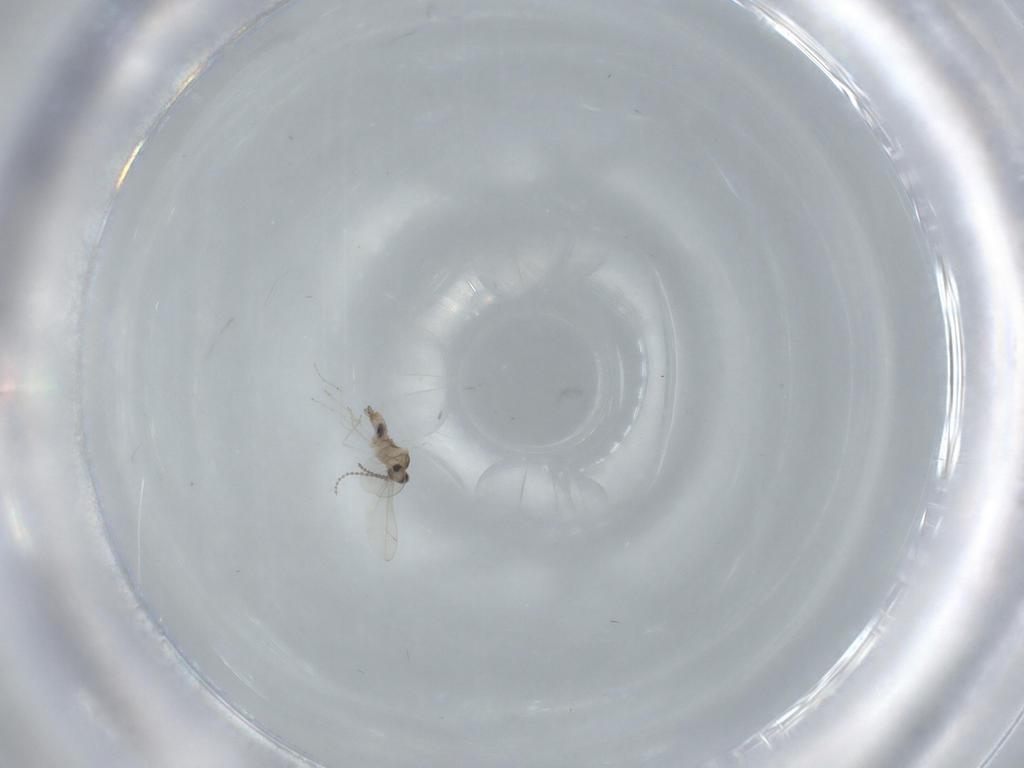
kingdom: Animalia
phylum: Arthropoda
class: Insecta
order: Diptera
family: Cecidomyiidae
